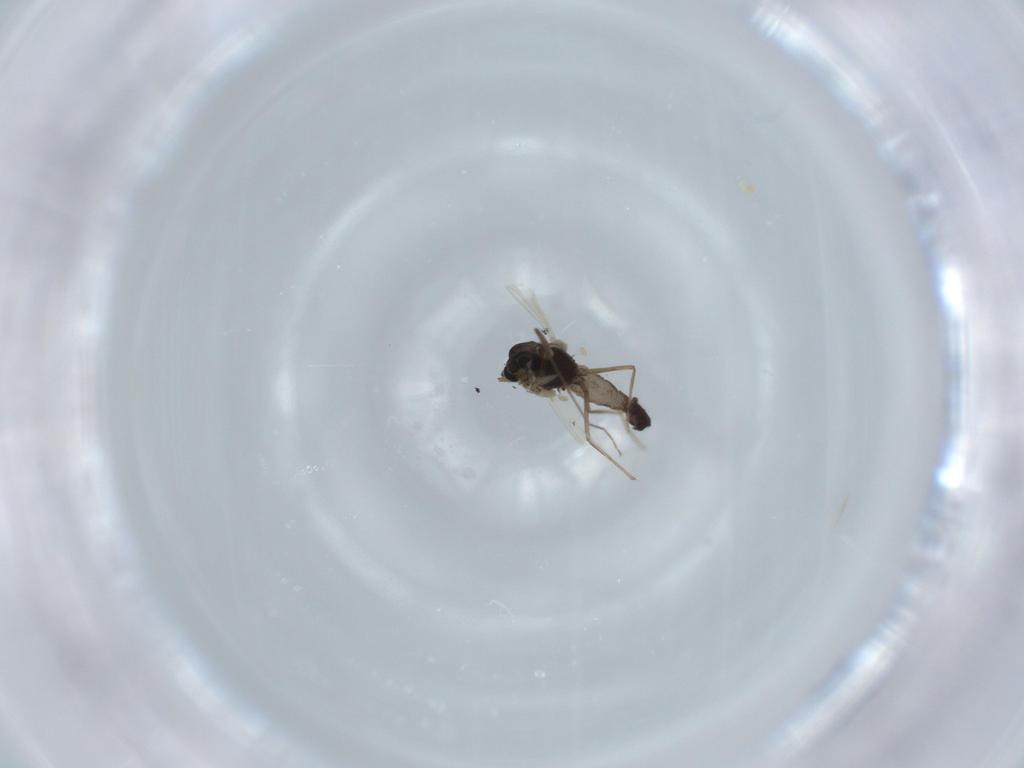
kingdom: Animalia
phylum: Arthropoda
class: Insecta
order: Diptera
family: Chironomidae
